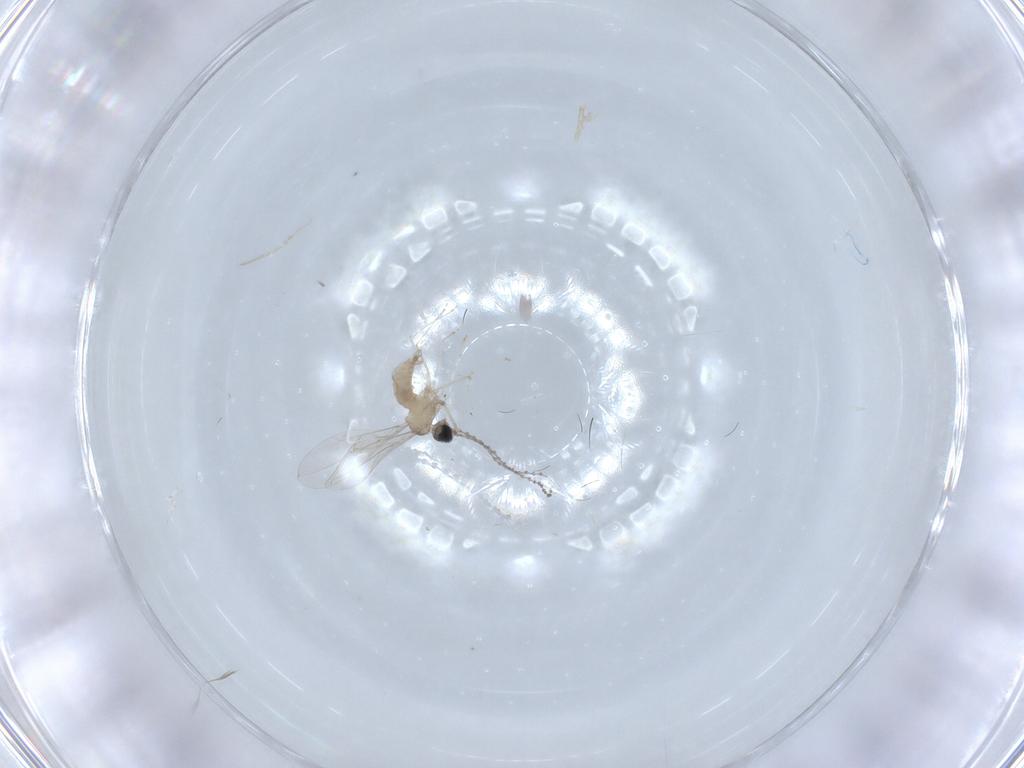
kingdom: Animalia
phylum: Arthropoda
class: Insecta
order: Diptera
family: Cecidomyiidae
